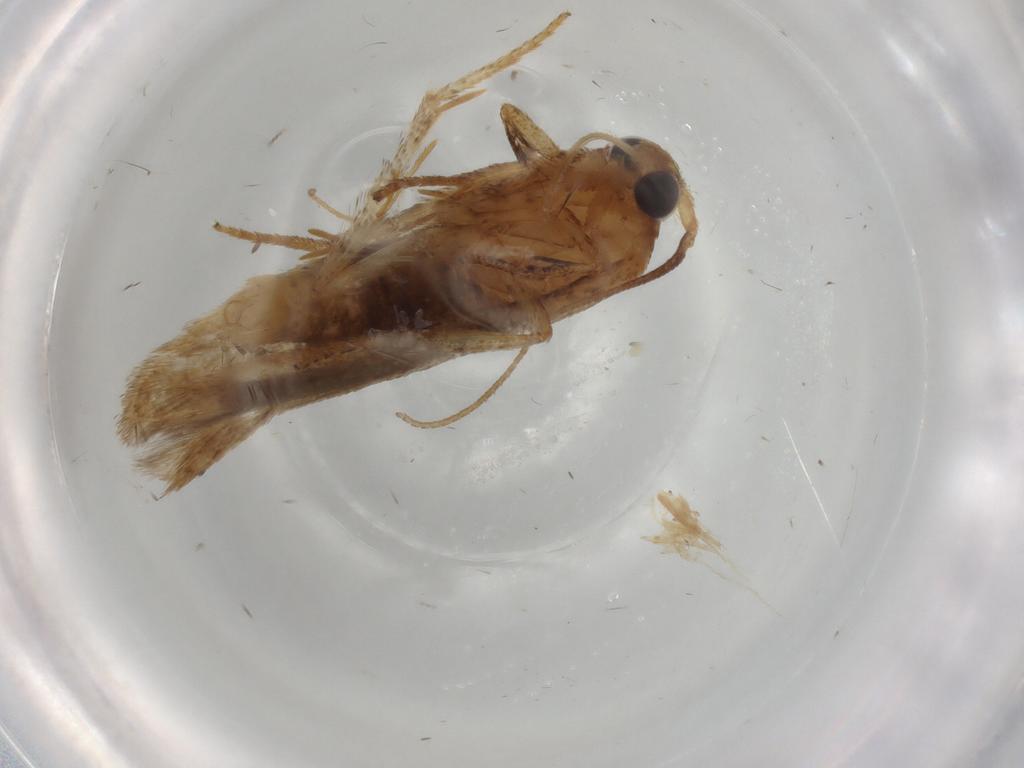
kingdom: Animalia
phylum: Arthropoda
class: Insecta
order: Lepidoptera
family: Blastobasidae
